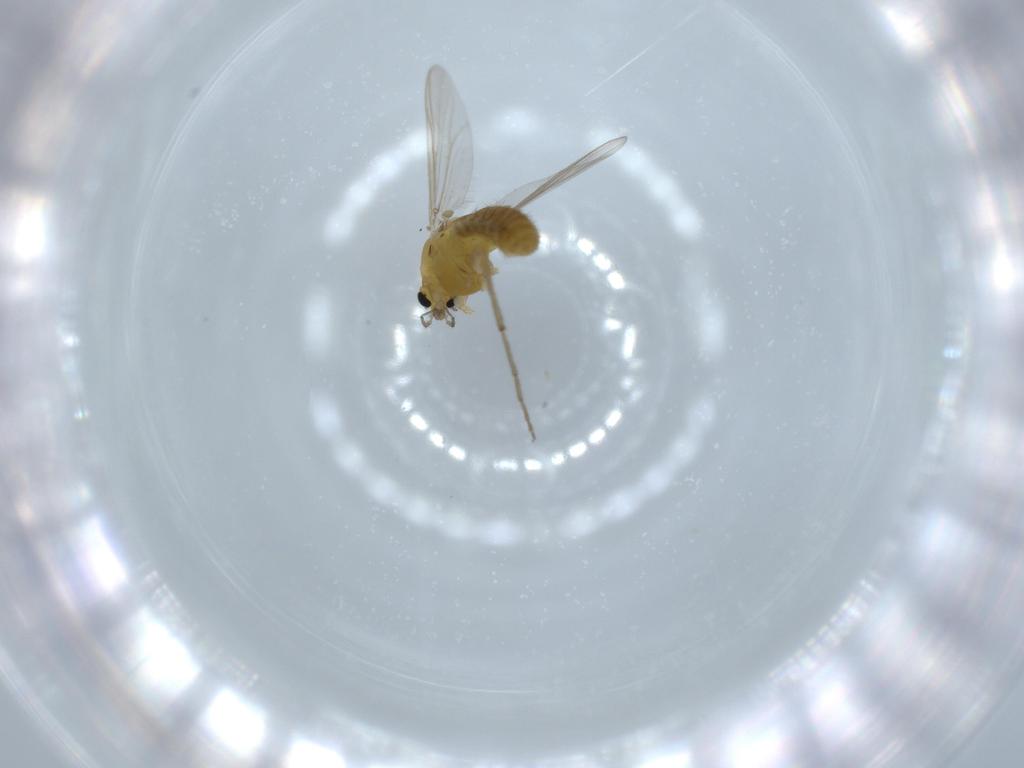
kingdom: Animalia
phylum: Arthropoda
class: Insecta
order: Diptera
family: Chironomidae
